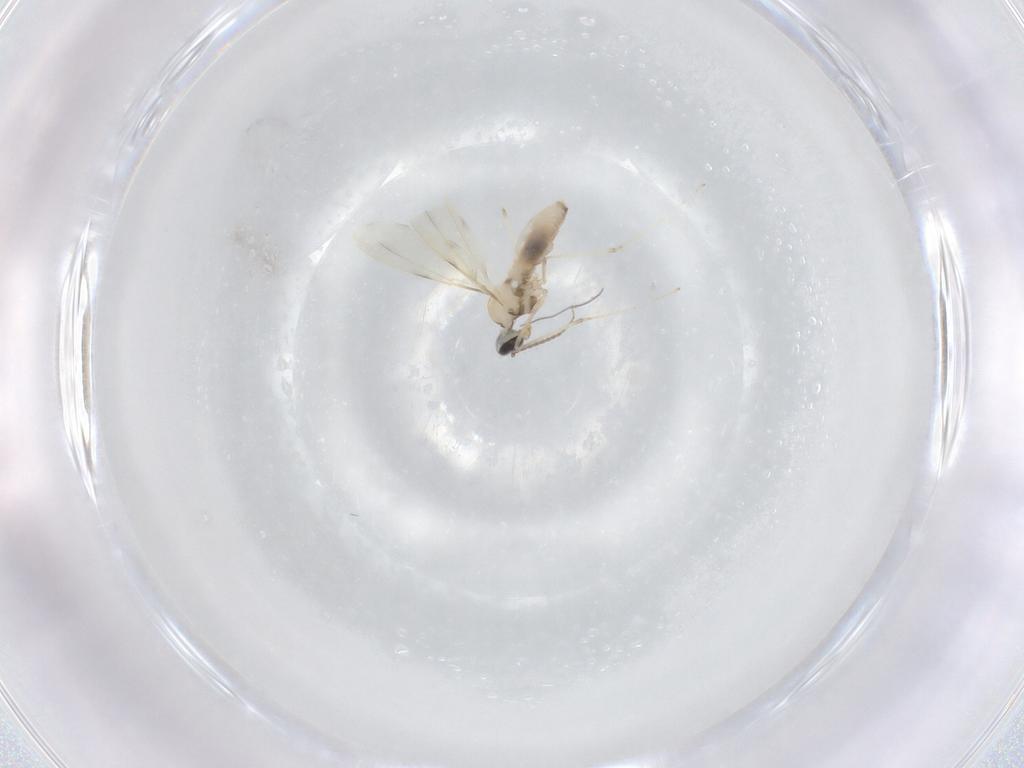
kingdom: Animalia
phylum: Arthropoda
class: Insecta
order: Diptera
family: Cecidomyiidae
